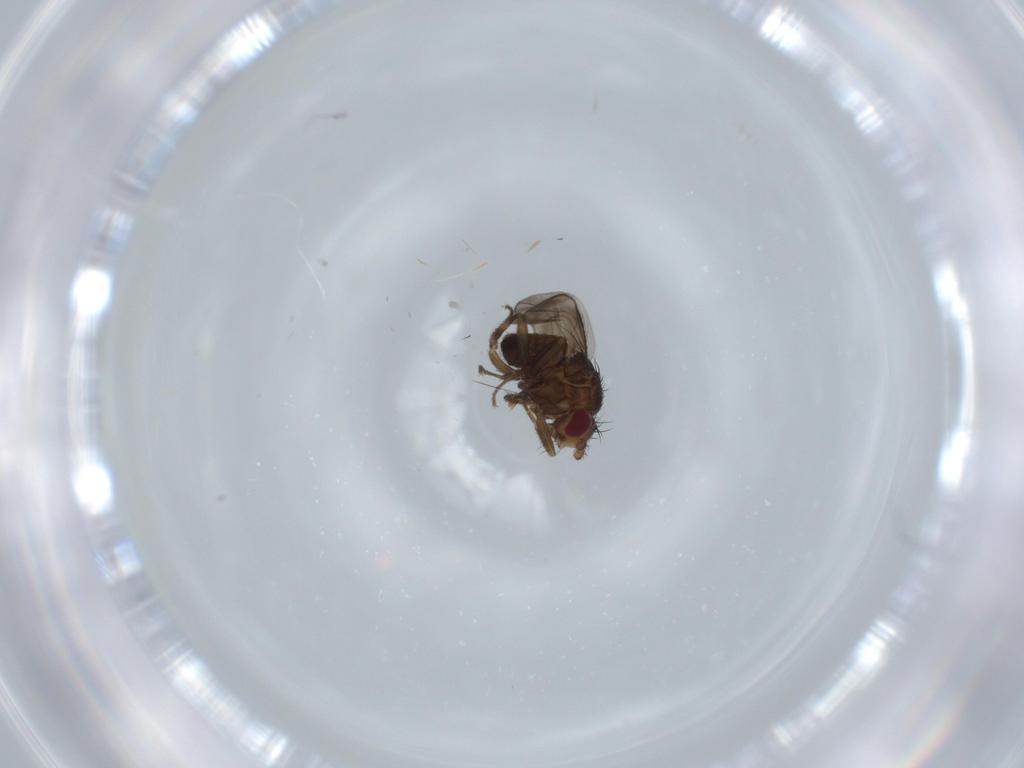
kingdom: Animalia
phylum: Arthropoda
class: Insecta
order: Diptera
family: Sphaeroceridae
